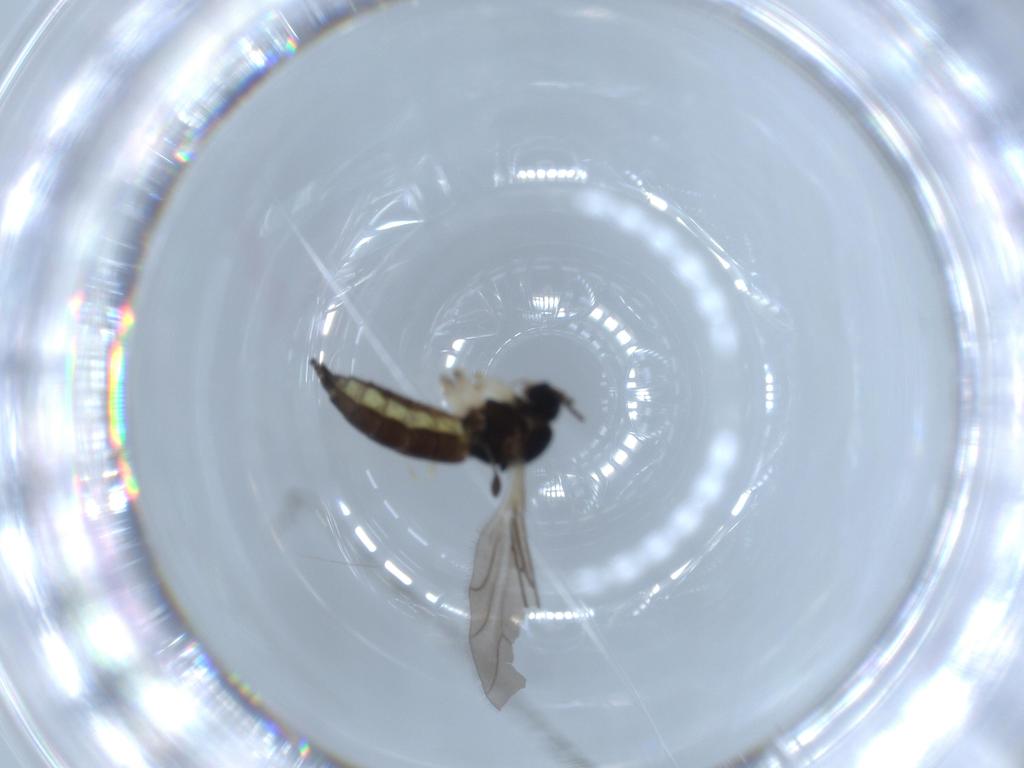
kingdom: Animalia
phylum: Arthropoda
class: Insecta
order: Diptera
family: Sciaridae
